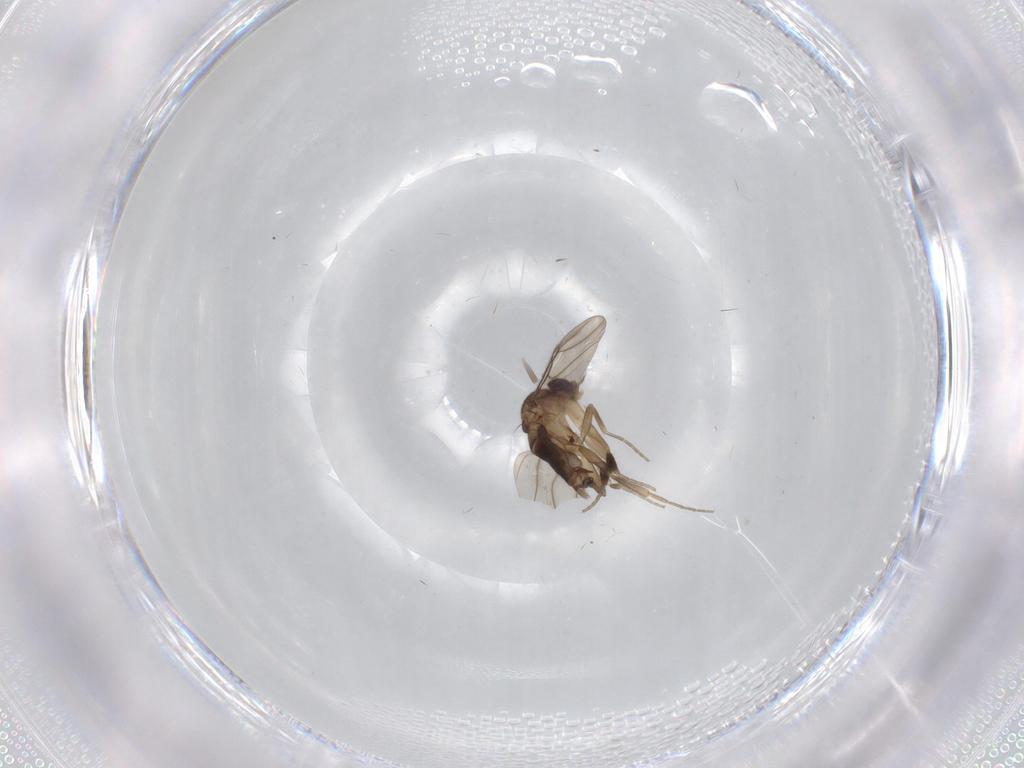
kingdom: Animalia
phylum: Arthropoda
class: Insecta
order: Diptera
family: Phoridae
